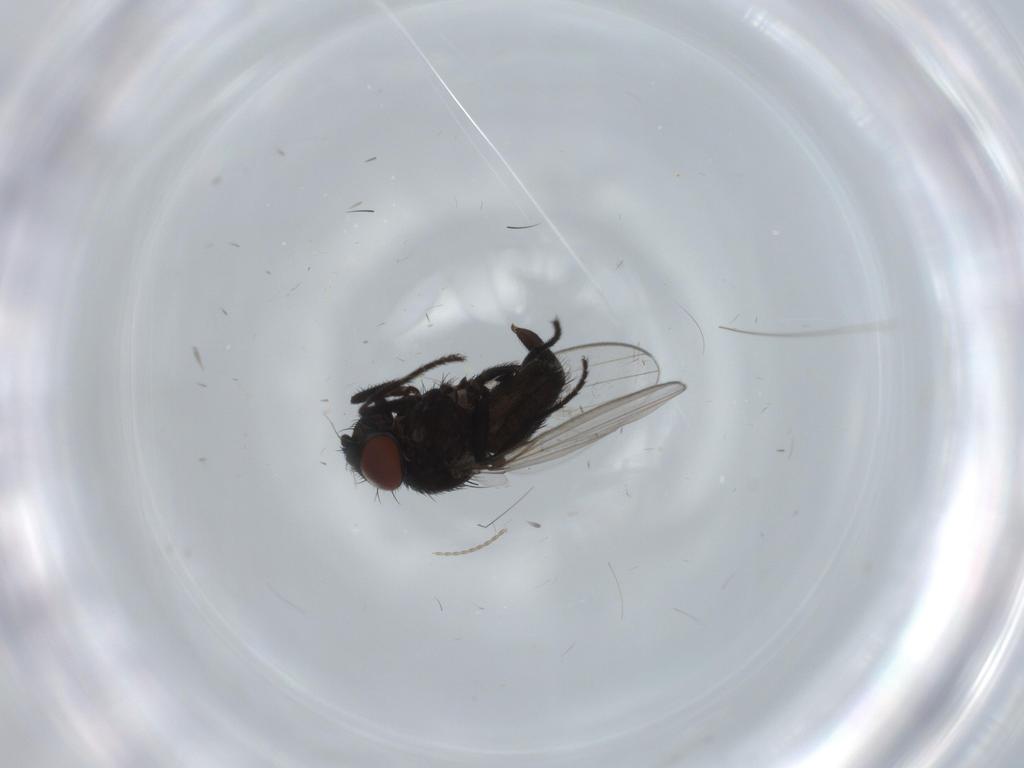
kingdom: Animalia
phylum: Arthropoda
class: Insecta
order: Diptera
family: Milichiidae
